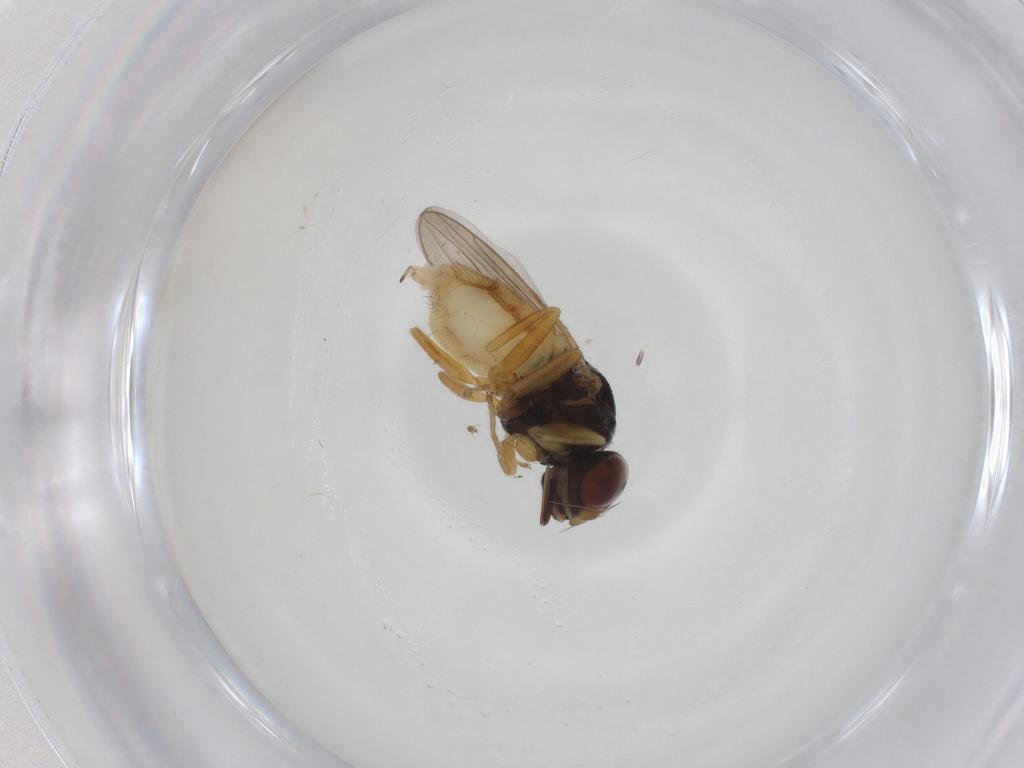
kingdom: Animalia
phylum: Arthropoda
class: Insecta
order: Diptera
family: Chloropidae
